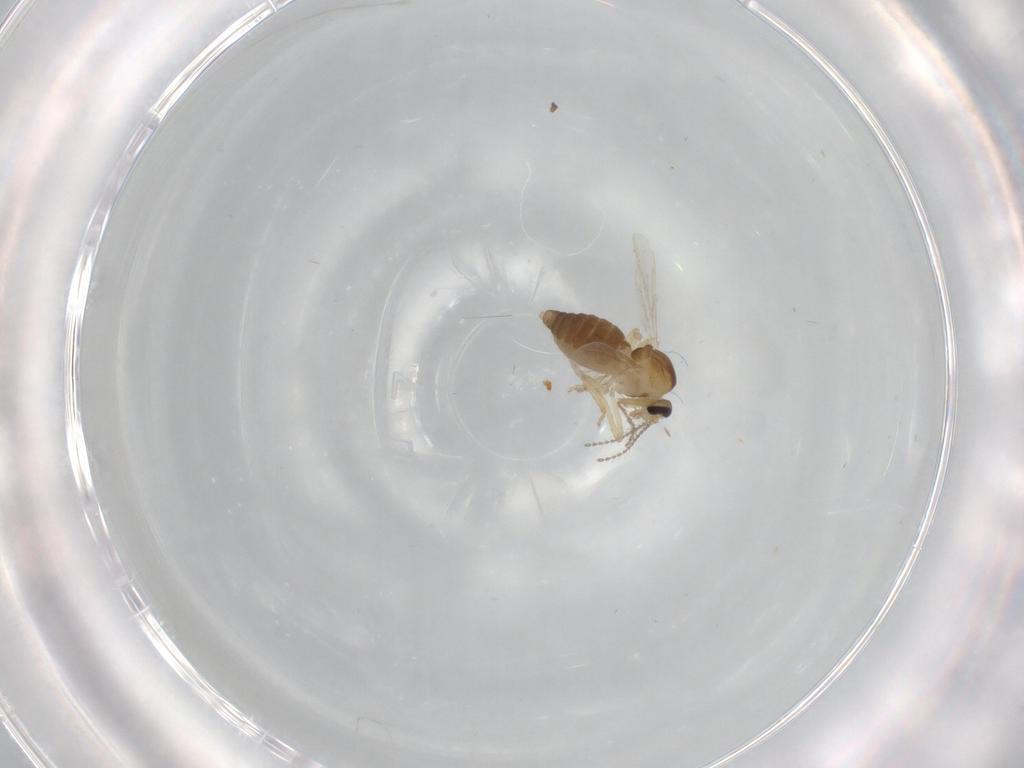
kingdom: Animalia
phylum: Arthropoda
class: Insecta
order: Diptera
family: Ceratopogonidae
